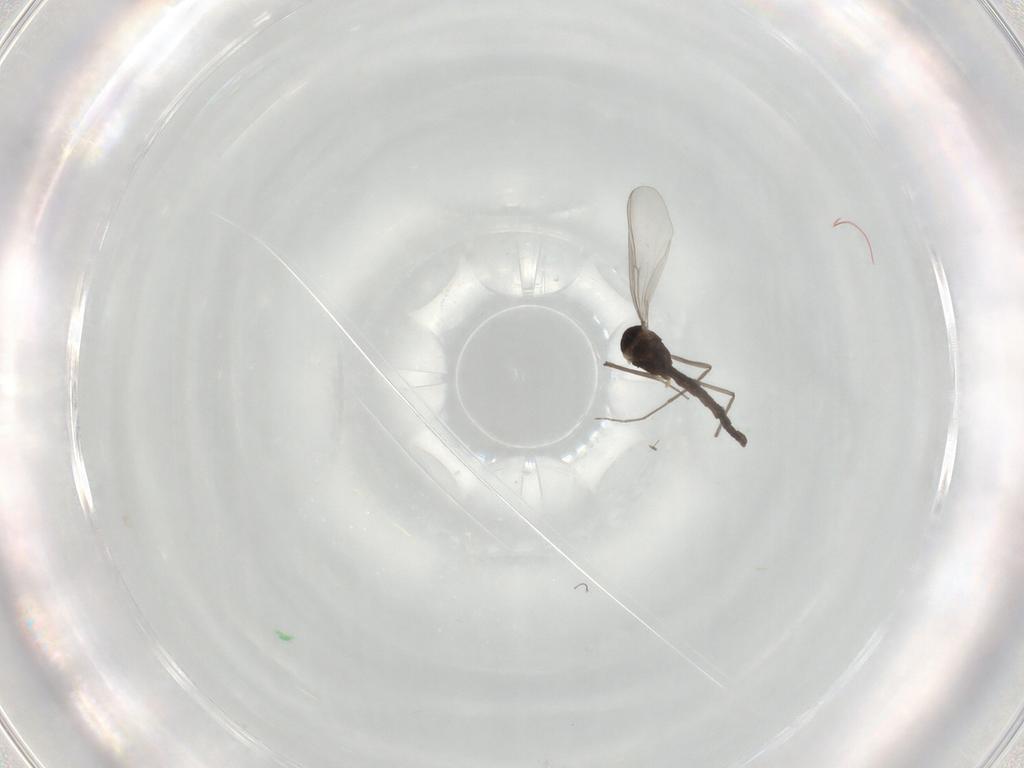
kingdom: Animalia
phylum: Arthropoda
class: Insecta
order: Diptera
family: Chironomidae
